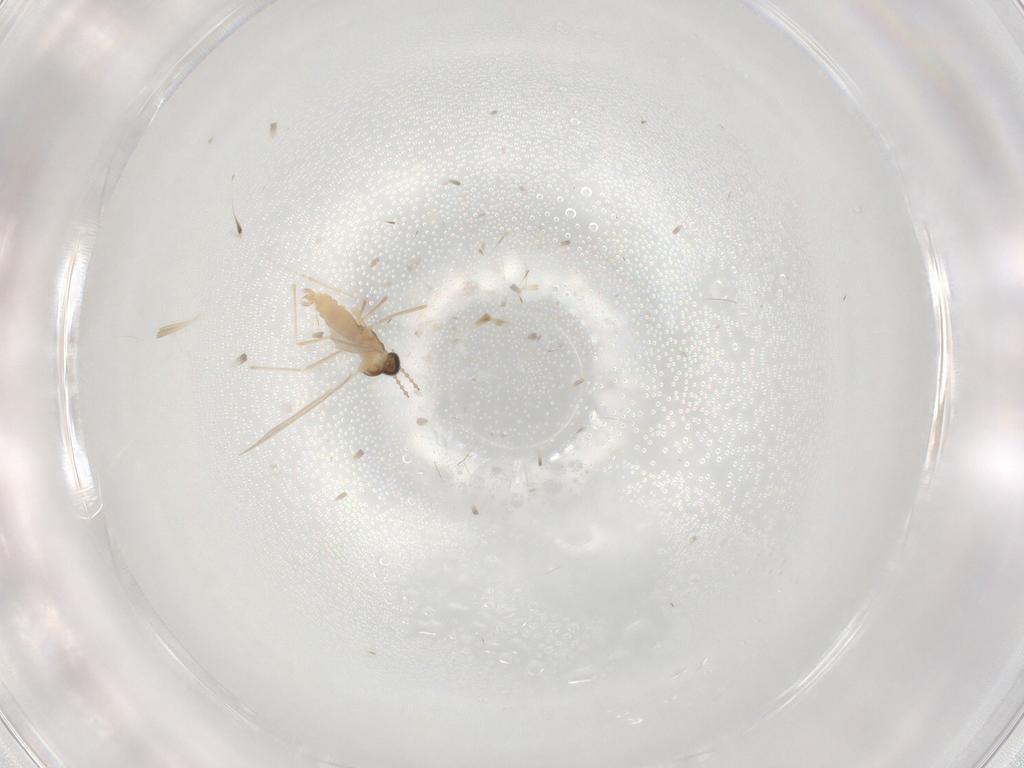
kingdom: Animalia
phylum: Arthropoda
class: Insecta
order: Diptera
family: Cecidomyiidae
